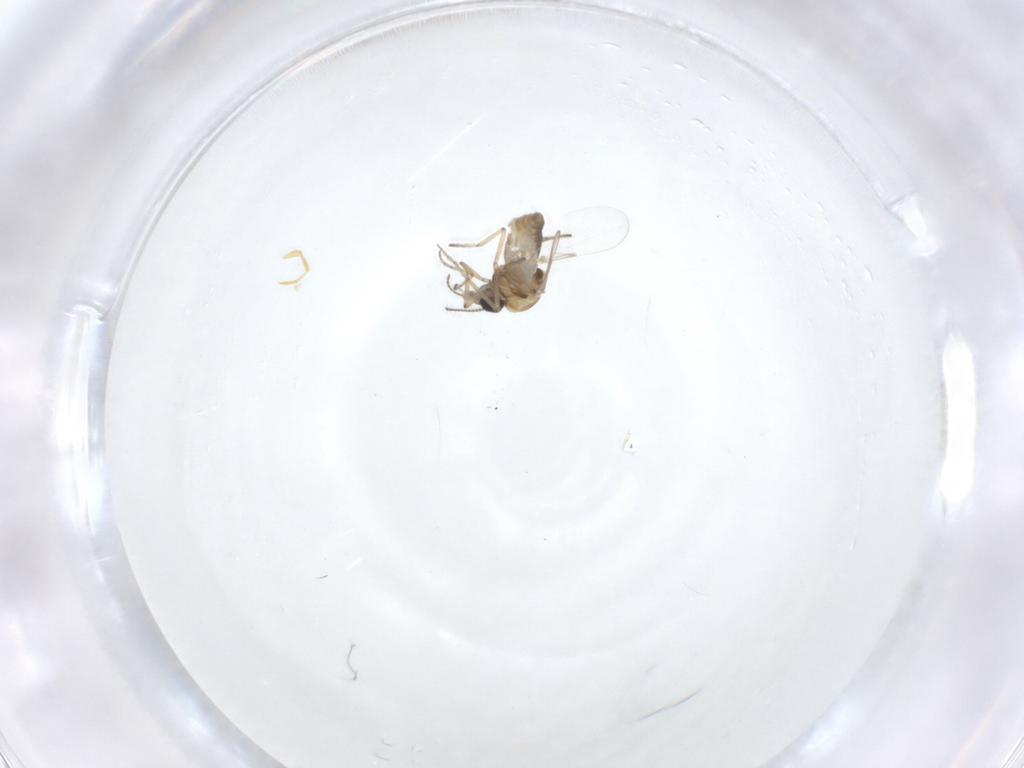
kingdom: Animalia
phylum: Arthropoda
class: Insecta
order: Diptera
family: Ceratopogonidae
